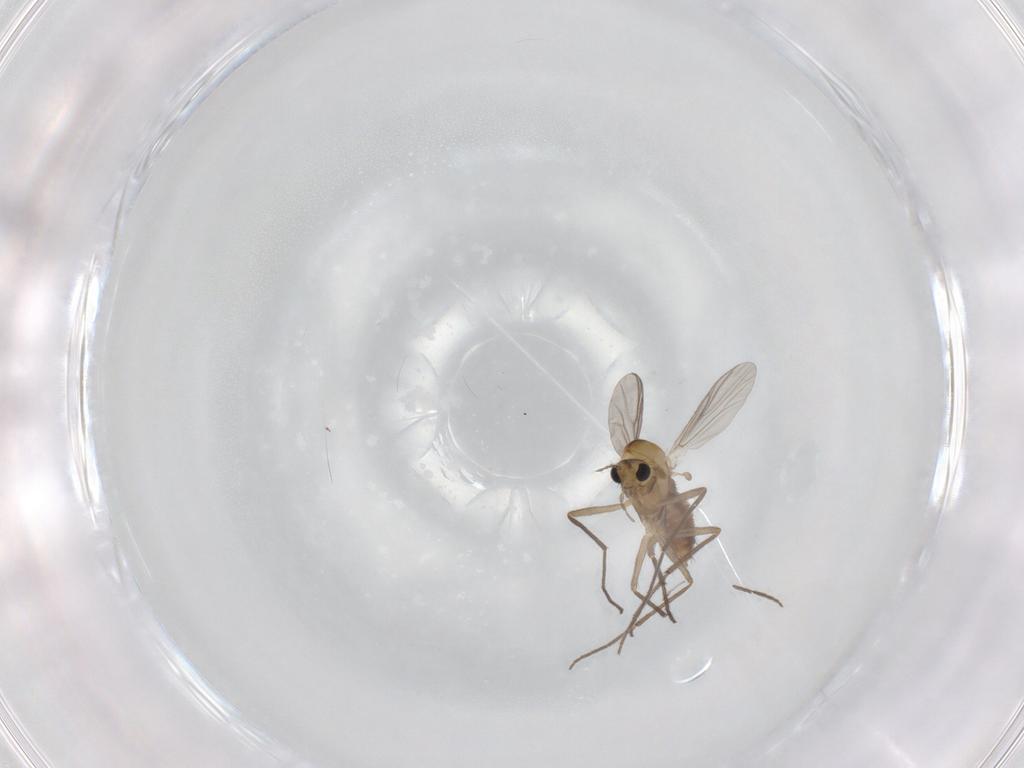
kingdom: Animalia
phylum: Arthropoda
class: Insecta
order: Diptera
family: Chironomidae
